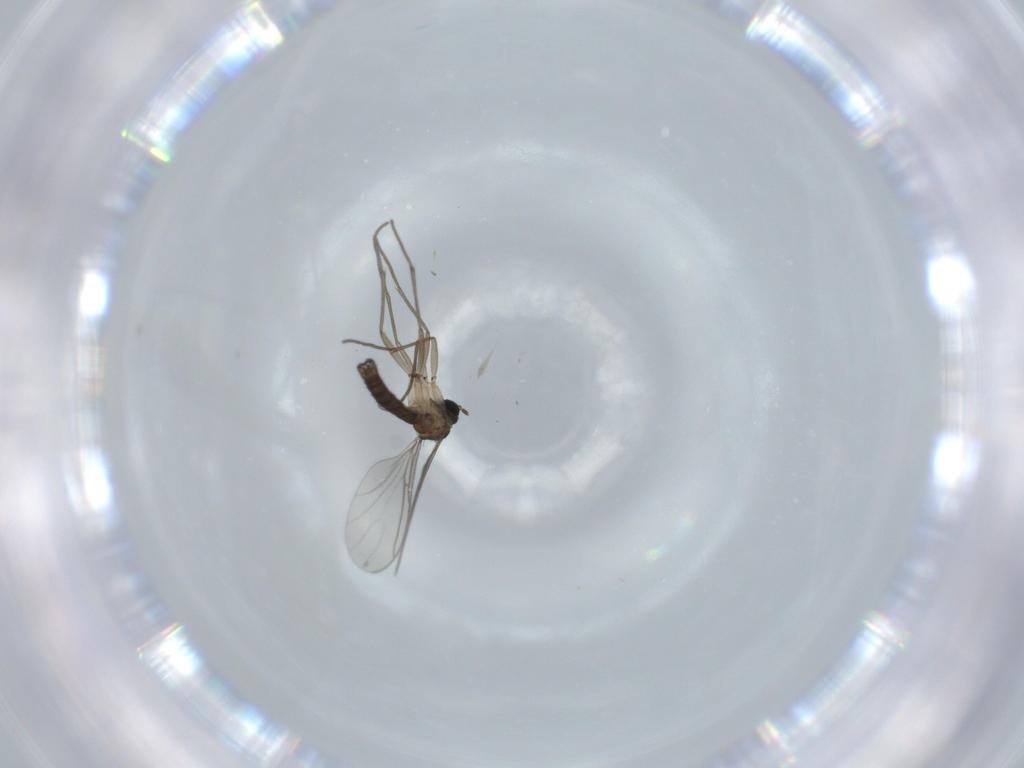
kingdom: Animalia
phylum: Arthropoda
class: Insecta
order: Diptera
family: Sciaridae
